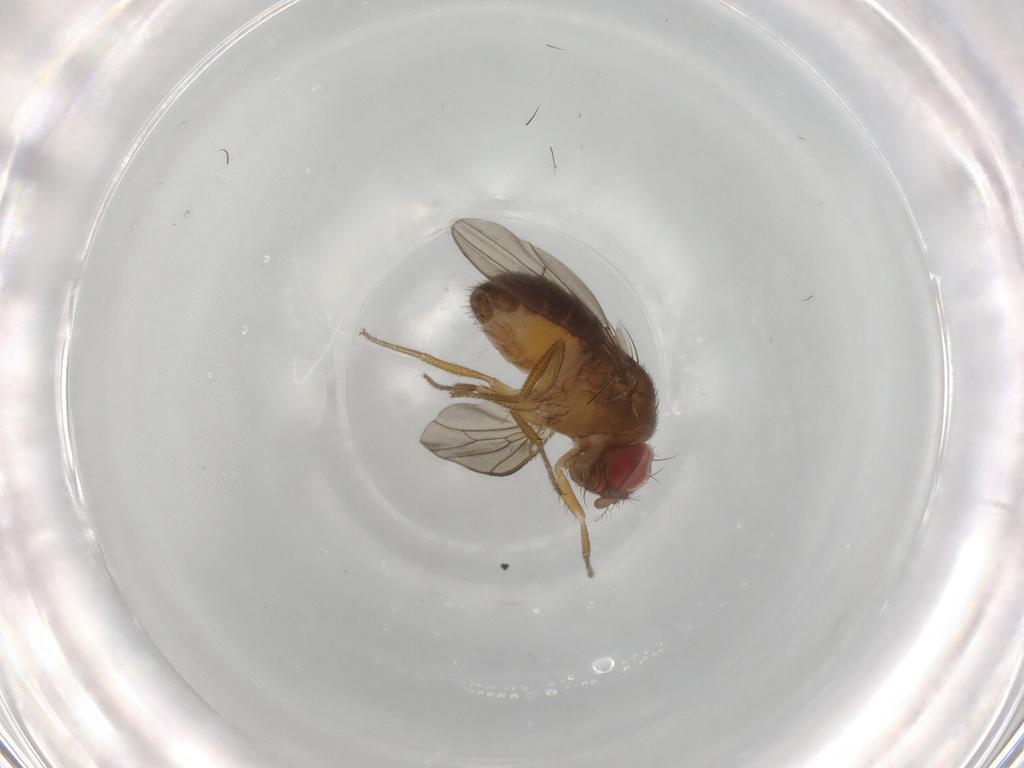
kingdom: Animalia
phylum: Arthropoda
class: Insecta
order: Diptera
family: Drosophilidae
